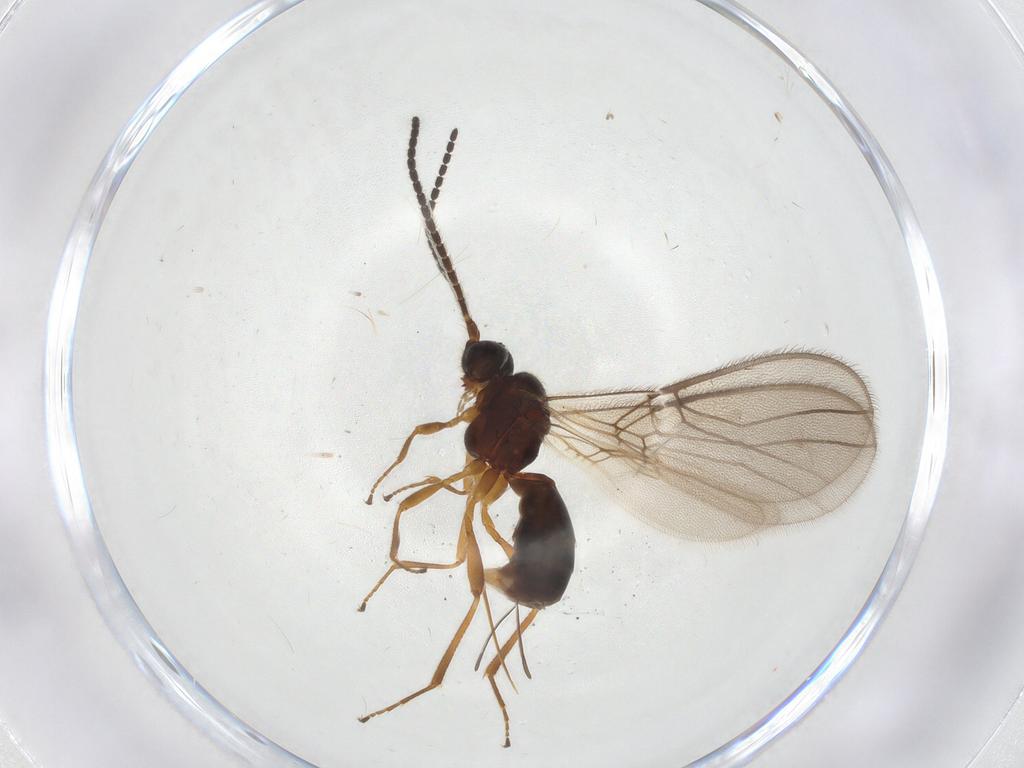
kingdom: Animalia
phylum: Arthropoda
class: Insecta
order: Hymenoptera
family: Braconidae
